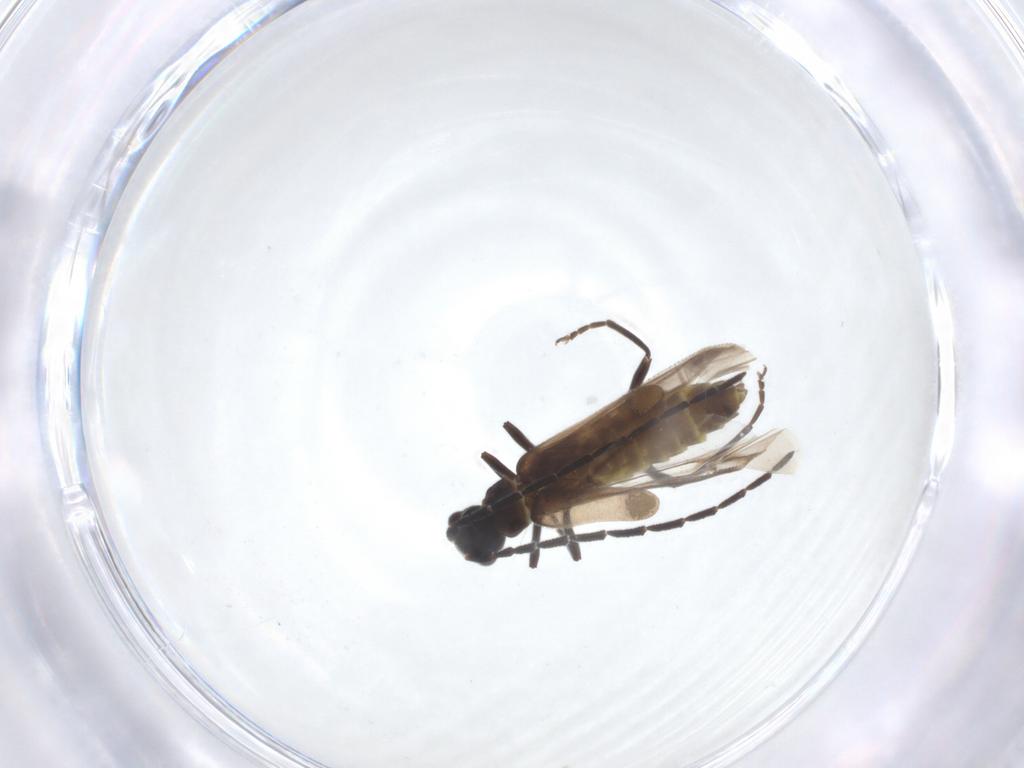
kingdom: Animalia
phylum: Arthropoda
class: Insecta
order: Coleoptera
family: Cantharidae
